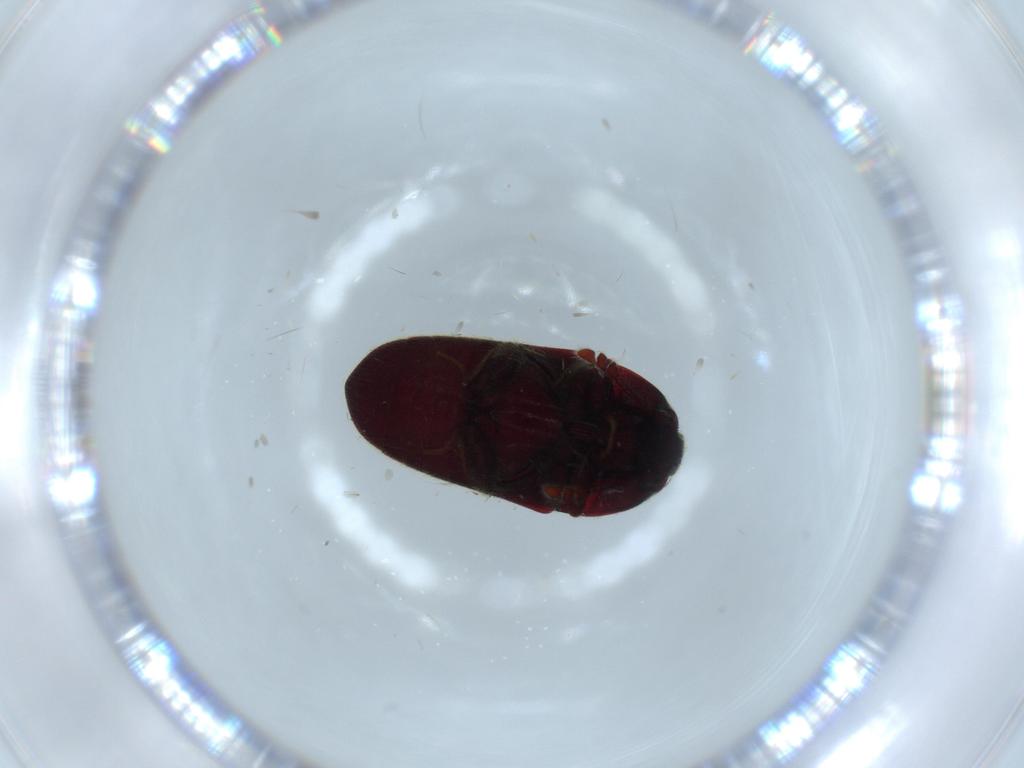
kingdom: Animalia
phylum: Arthropoda
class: Insecta
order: Coleoptera
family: Throscidae
